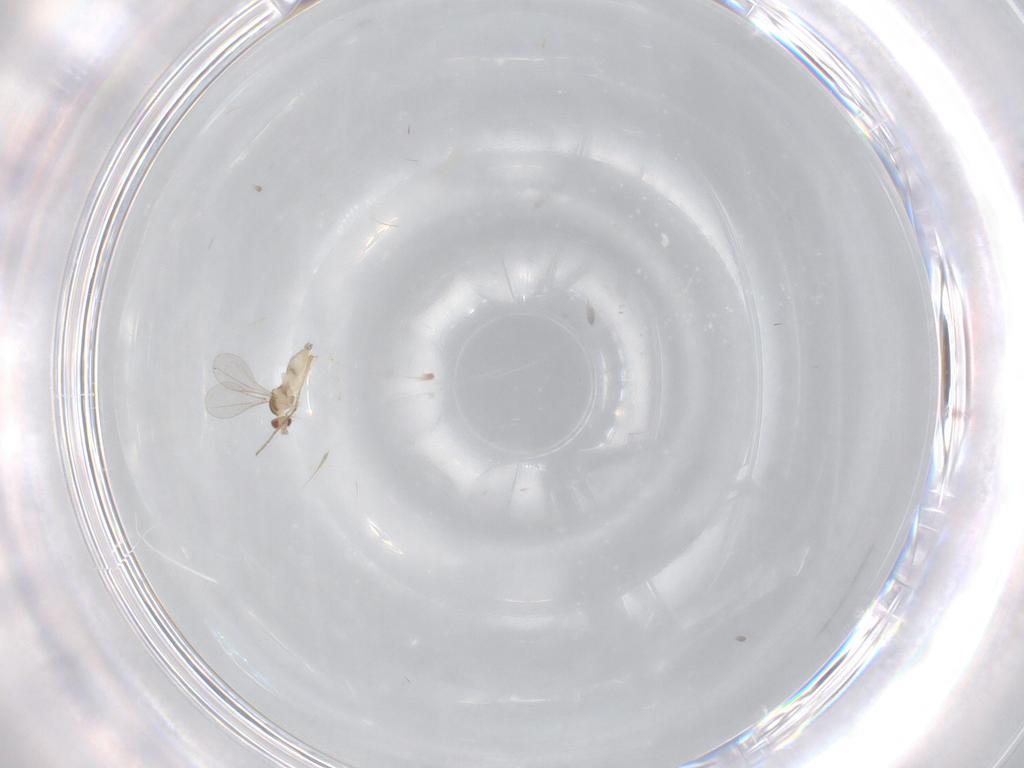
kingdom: Animalia
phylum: Arthropoda
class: Insecta
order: Diptera
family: Cecidomyiidae
